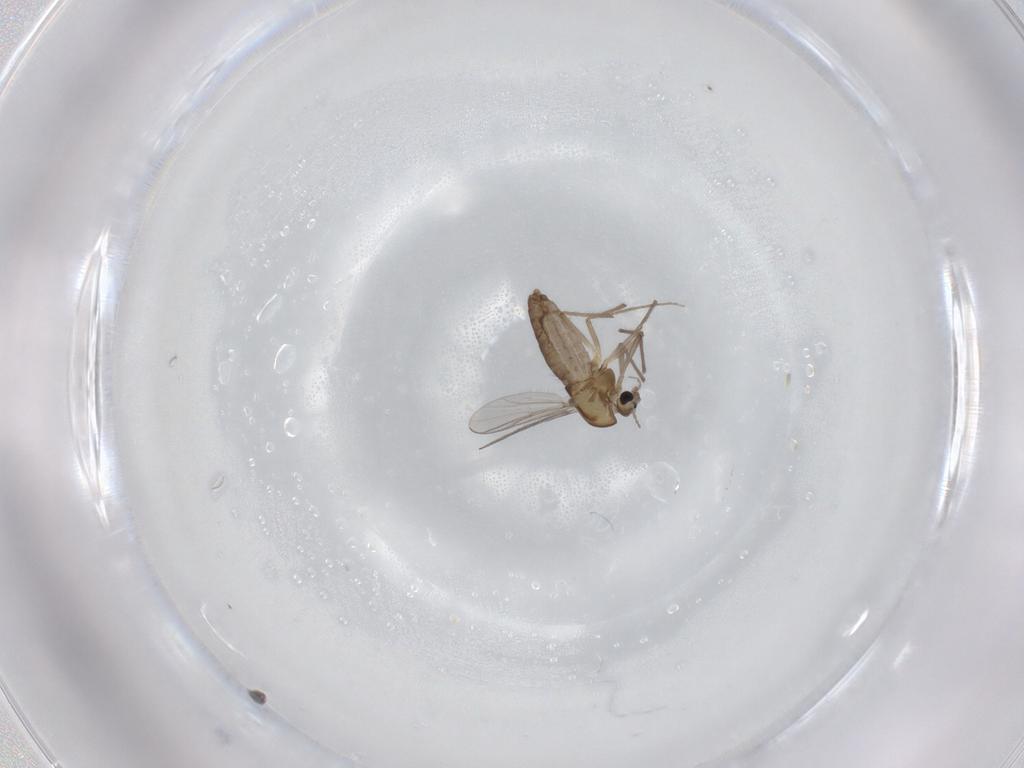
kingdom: Animalia
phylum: Arthropoda
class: Insecta
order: Diptera
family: Chironomidae
